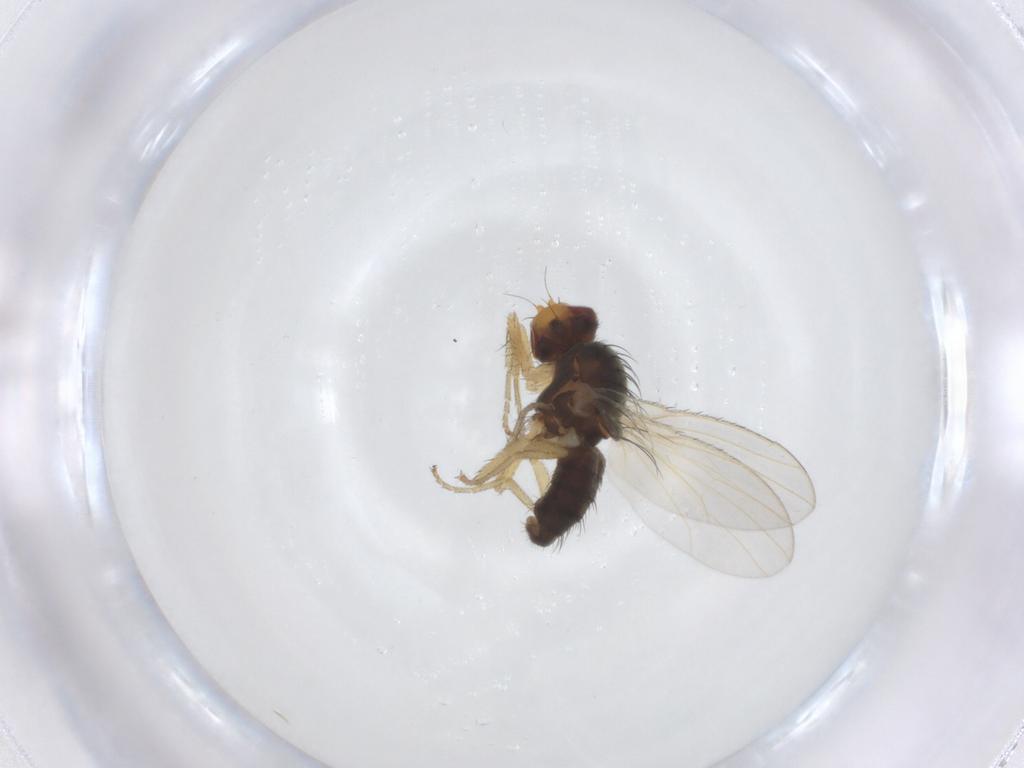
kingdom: Animalia
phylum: Arthropoda
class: Insecta
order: Diptera
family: Heleomyzidae
